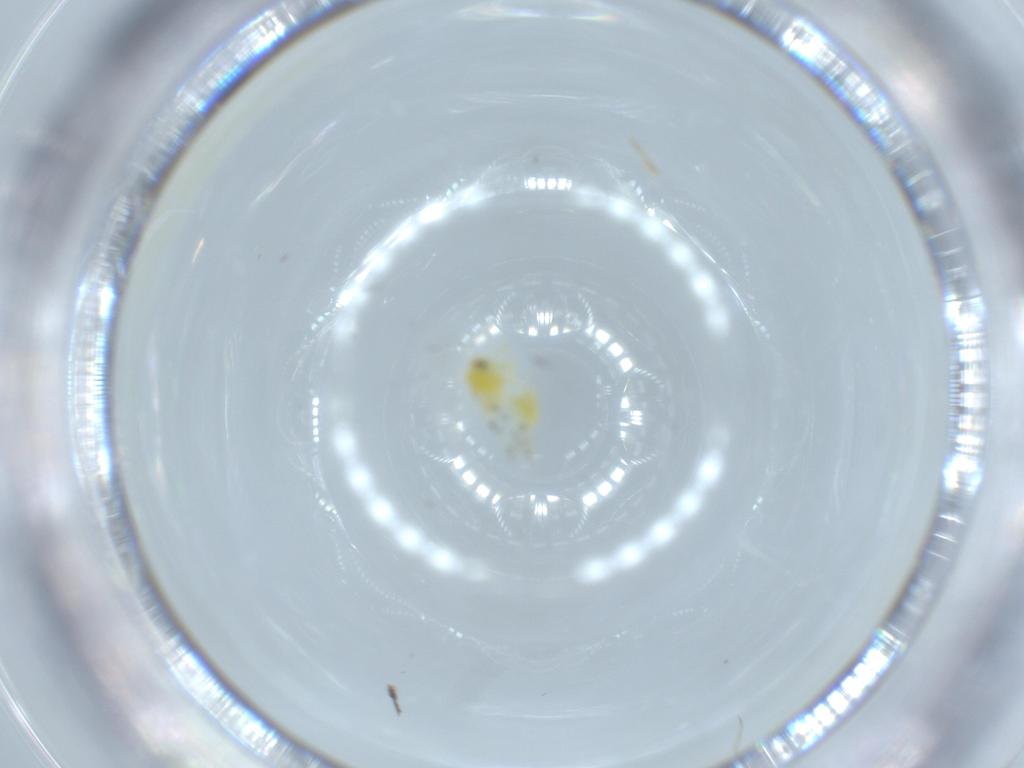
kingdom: Animalia
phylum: Arthropoda
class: Insecta
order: Hemiptera
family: Aleyrodidae
